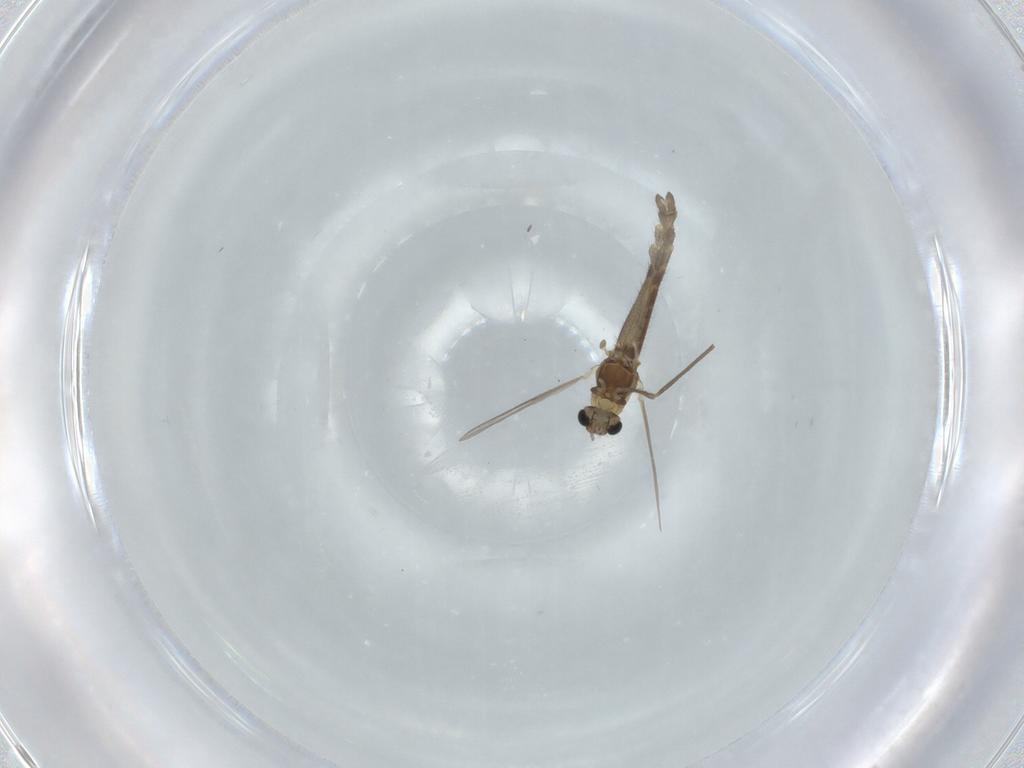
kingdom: Animalia
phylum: Arthropoda
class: Insecta
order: Diptera
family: Chironomidae
